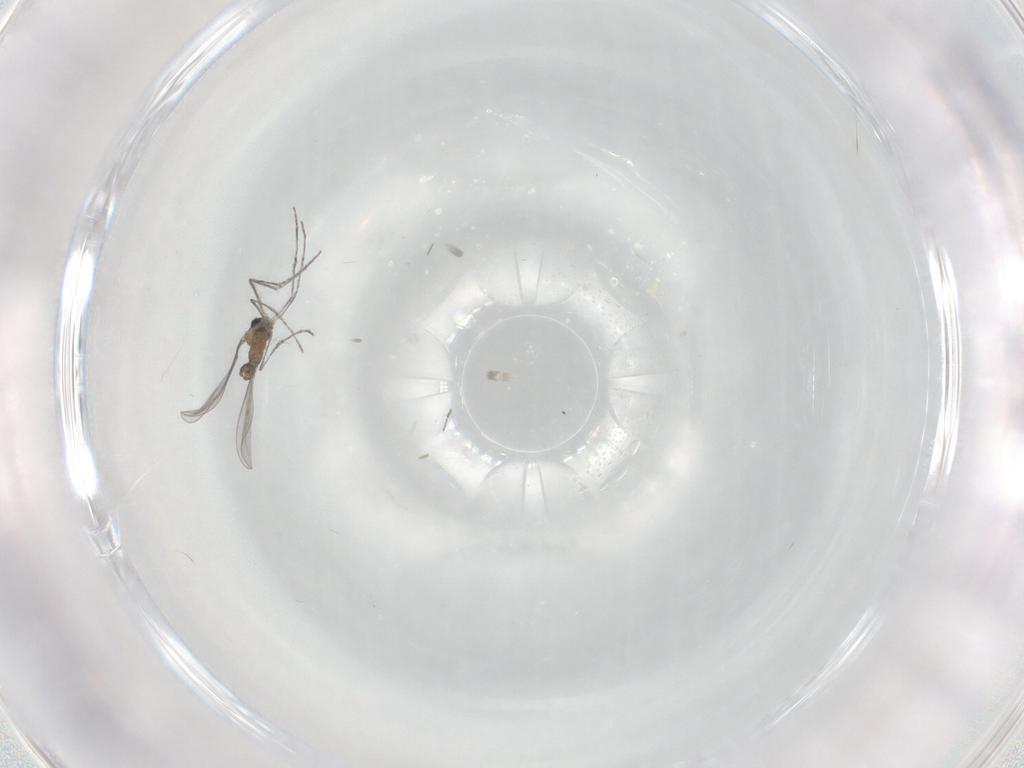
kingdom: Animalia
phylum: Arthropoda
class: Insecta
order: Diptera
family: Cecidomyiidae
